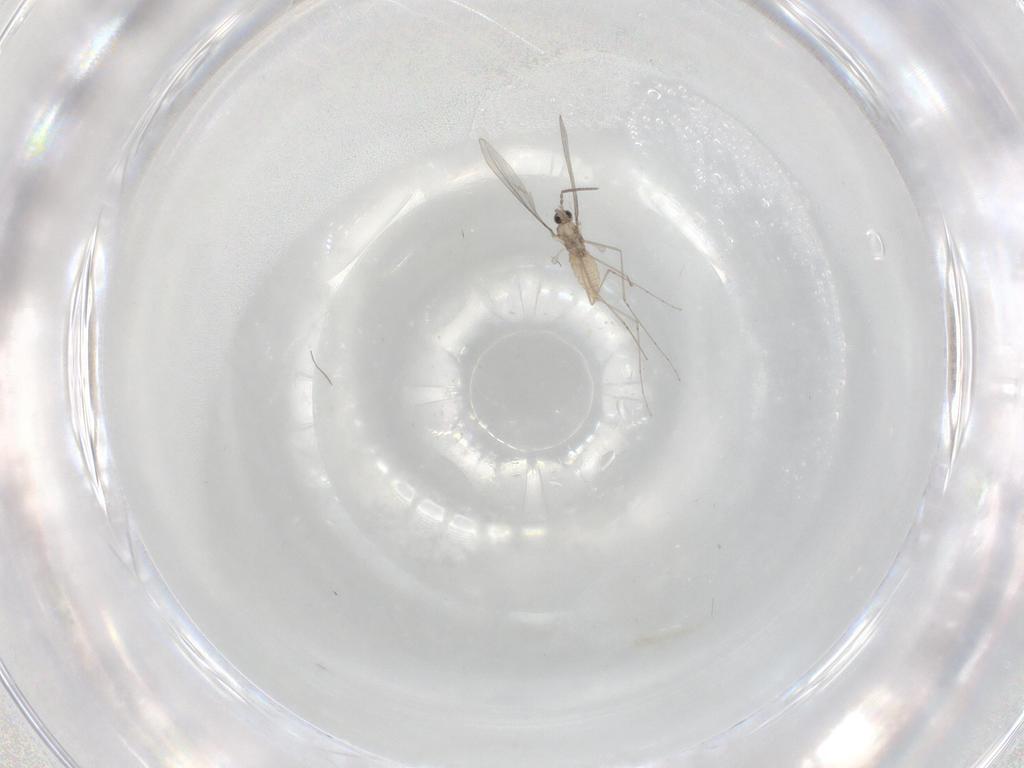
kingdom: Animalia
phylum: Arthropoda
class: Insecta
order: Diptera
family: Cecidomyiidae
